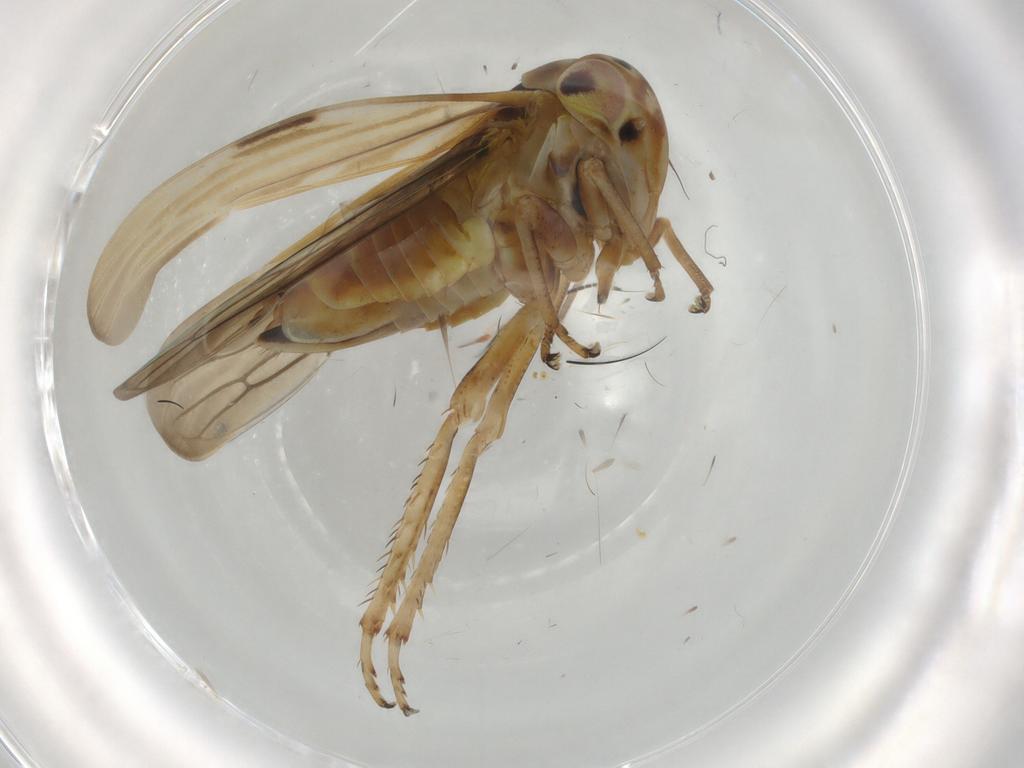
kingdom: Animalia
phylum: Arthropoda
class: Insecta
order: Hemiptera
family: Cicadellidae
